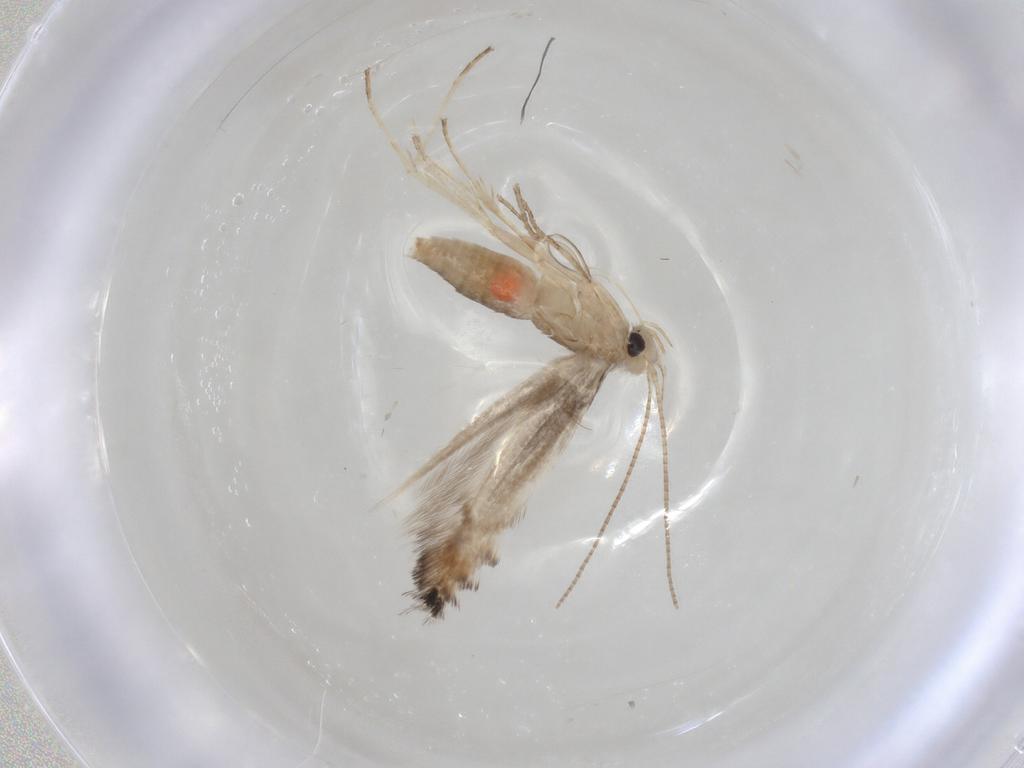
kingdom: Animalia
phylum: Arthropoda
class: Insecta
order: Lepidoptera
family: Gracillariidae
